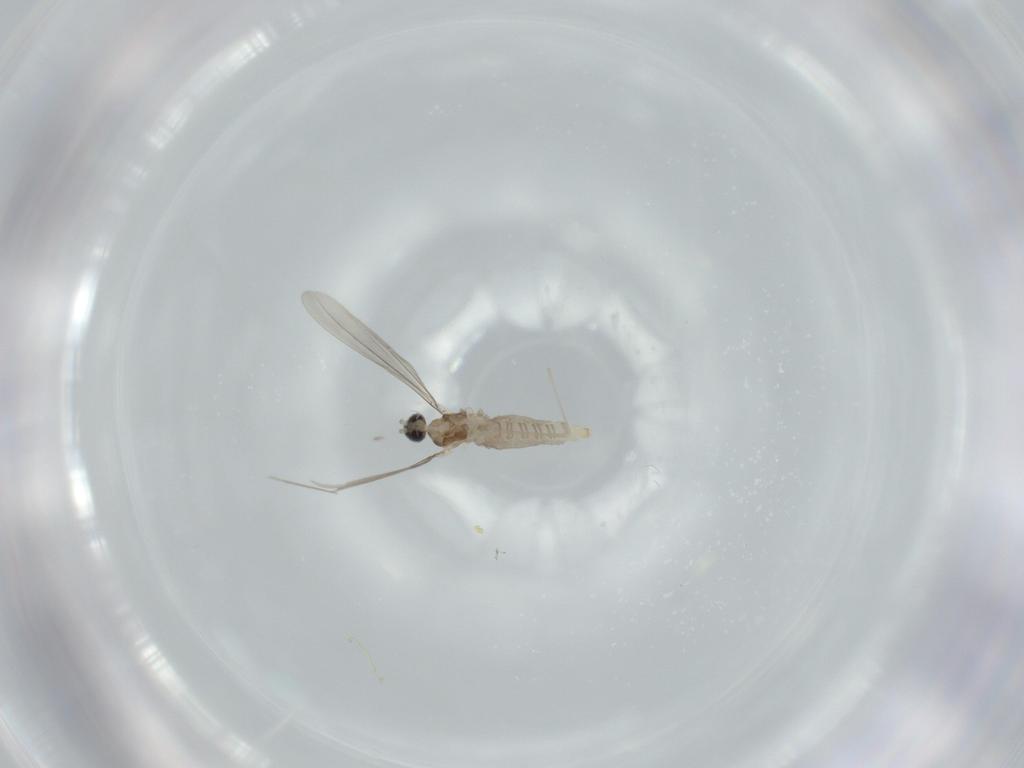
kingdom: Animalia
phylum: Arthropoda
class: Insecta
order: Diptera
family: Cecidomyiidae
